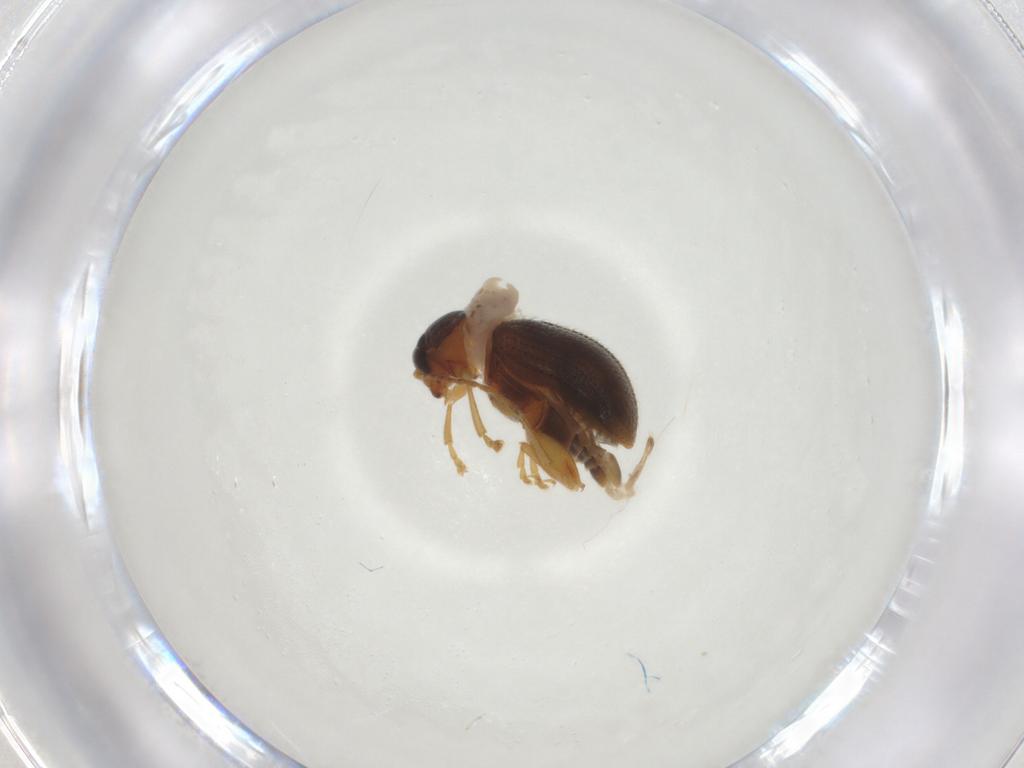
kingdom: Animalia
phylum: Arthropoda
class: Insecta
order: Coleoptera
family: Chrysomelidae
